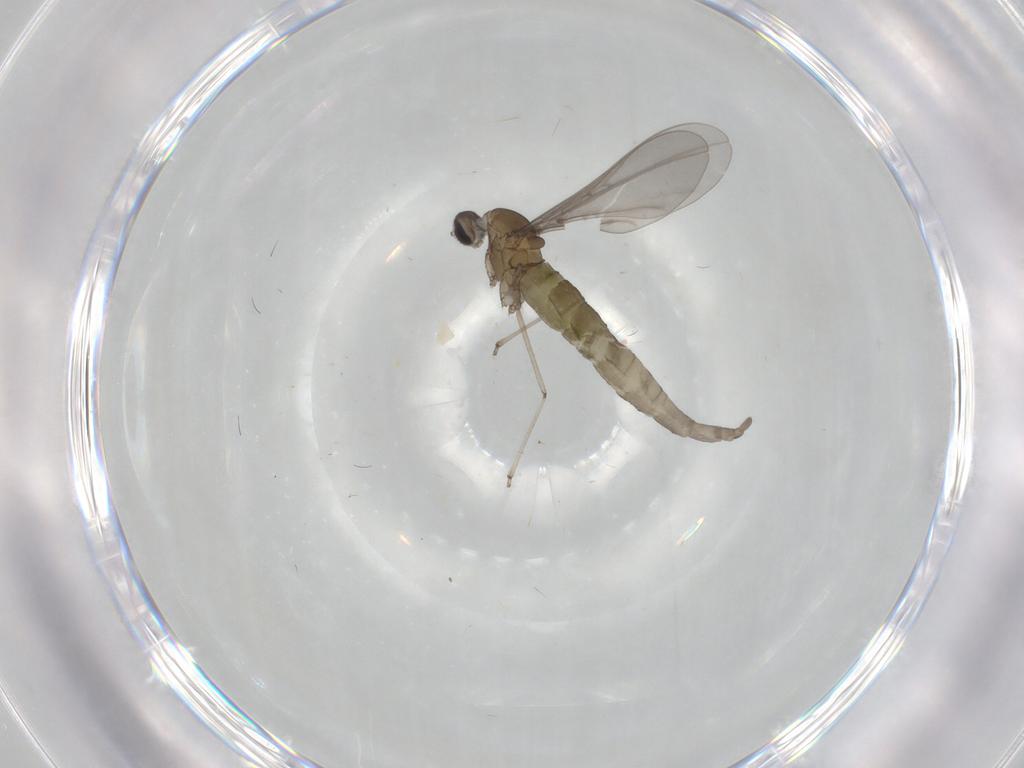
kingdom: Animalia
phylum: Arthropoda
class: Insecta
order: Diptera
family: Asilidae
